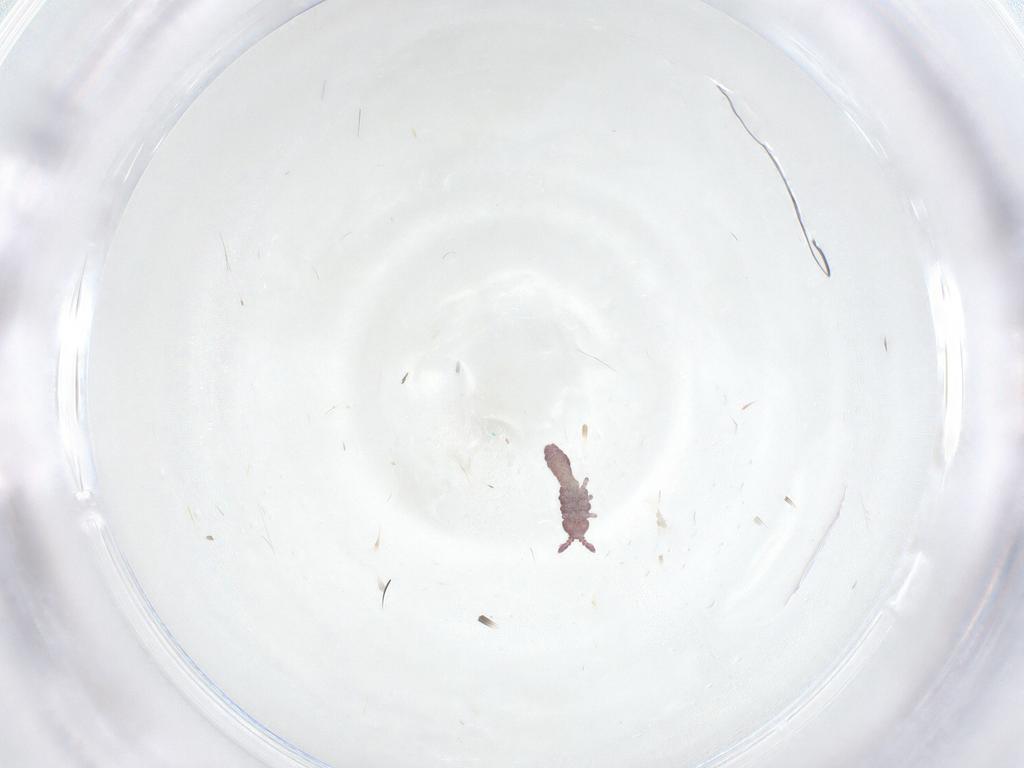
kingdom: Animalia
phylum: Arthropoda
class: Collembola
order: Poduromorpha
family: Hypogastruridae
